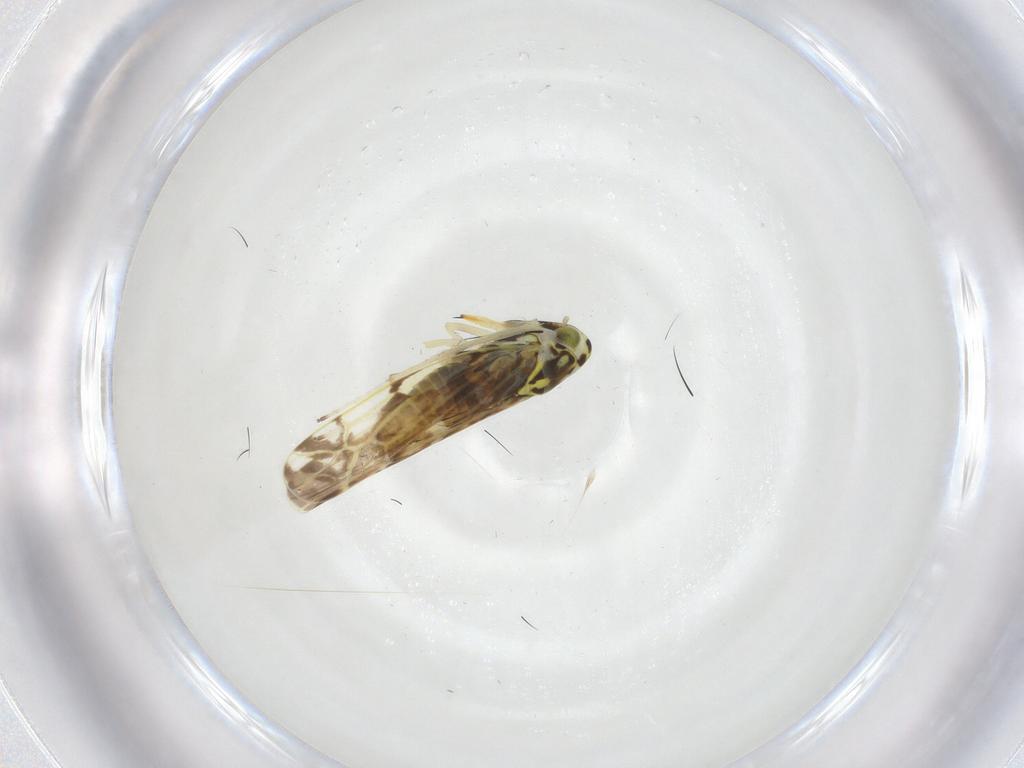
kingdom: Animalia
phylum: Arthropoda
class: Insecta
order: Hemiptera
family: Cicadellidae
